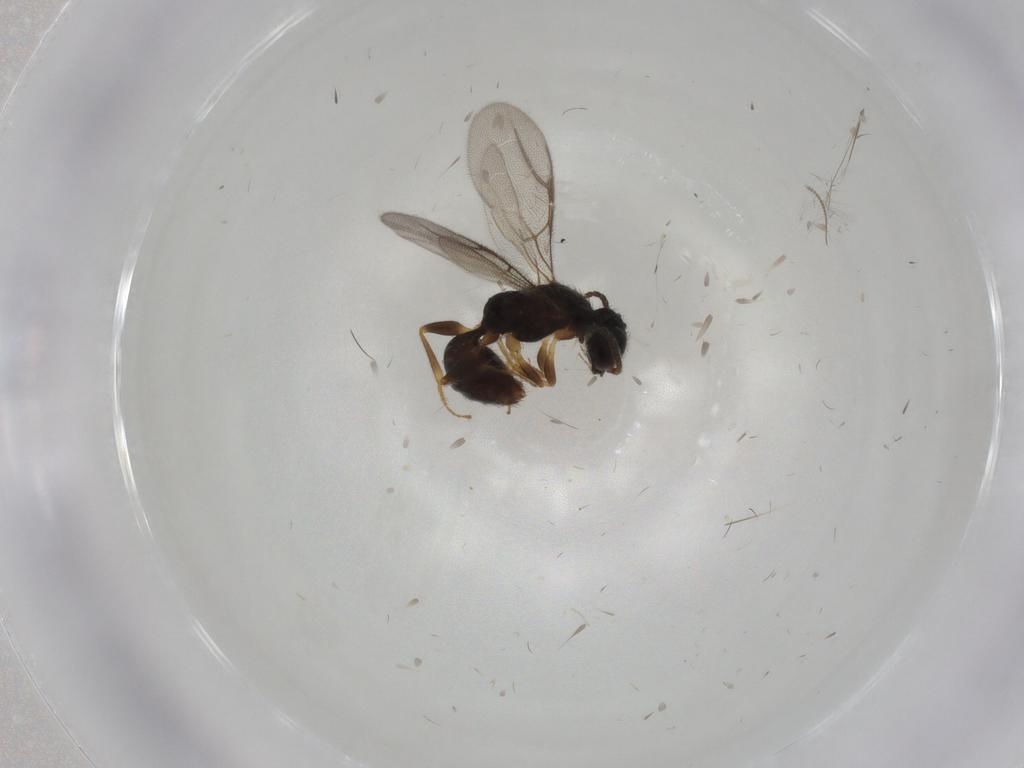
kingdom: Animalia
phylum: Arthropoda
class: Insecta
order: Hymenoptera
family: Bethylidae
